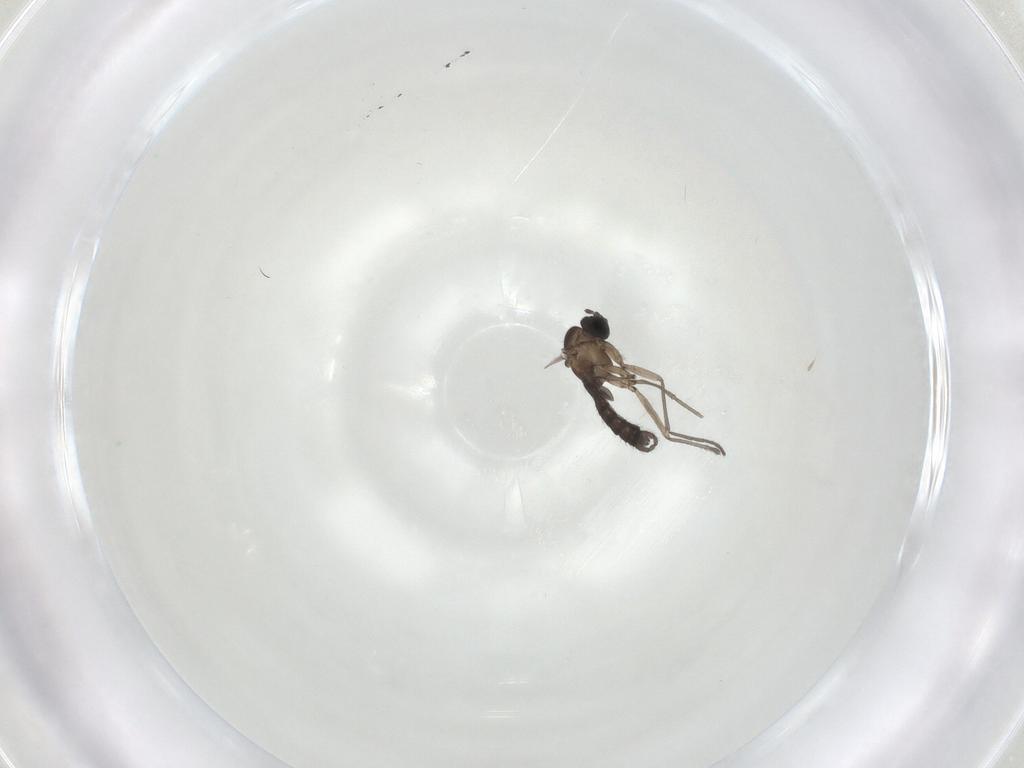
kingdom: Animalia
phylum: Arthropoda
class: Insecta
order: Diptera
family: Sciaridae
